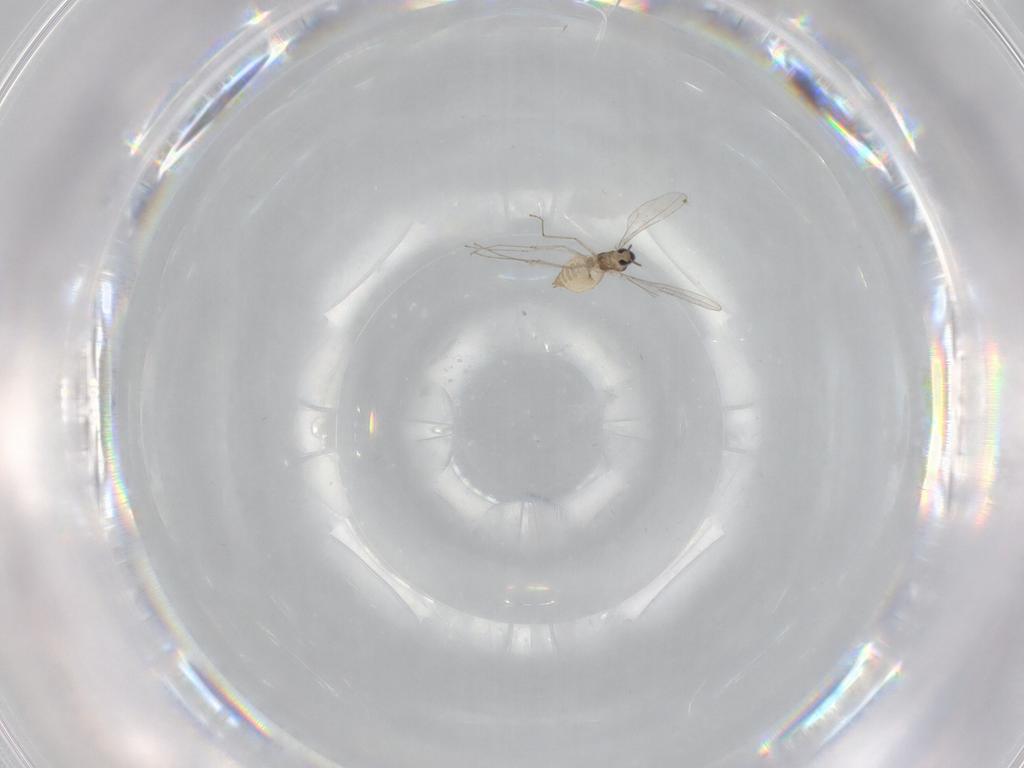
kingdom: Animalia
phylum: Arthropoda
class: Insecta
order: Diptera
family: Cecidomyiidae
